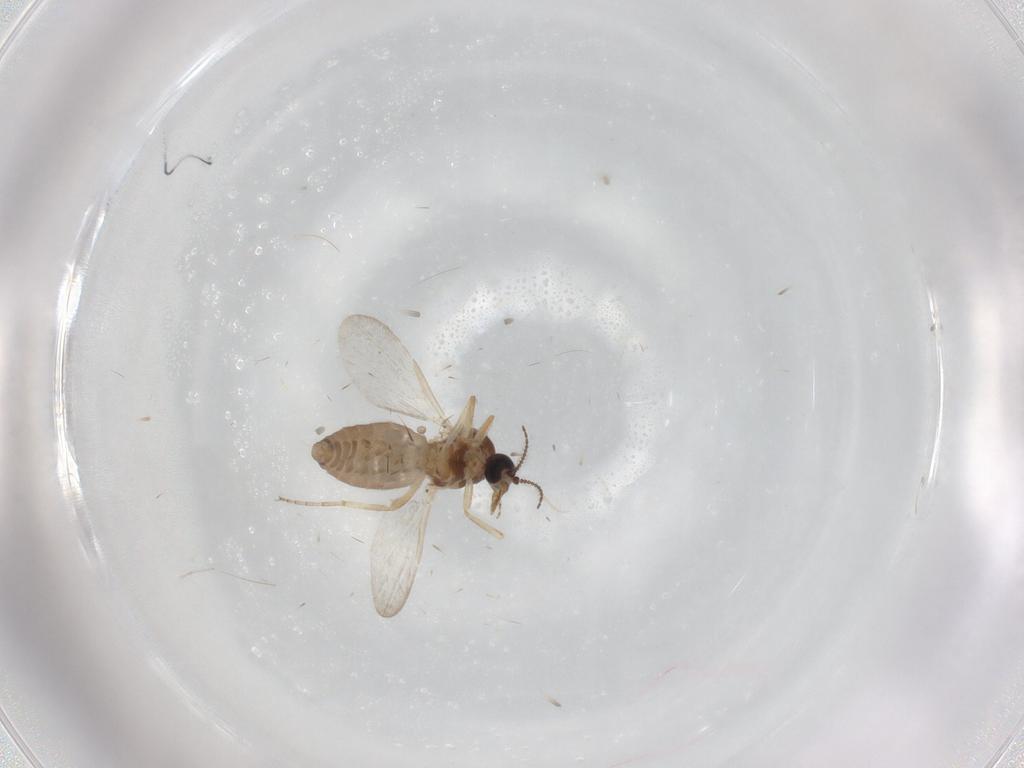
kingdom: Animalia
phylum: Arthropoda
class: Insecta
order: Diptera
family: Ceratopogonidae
